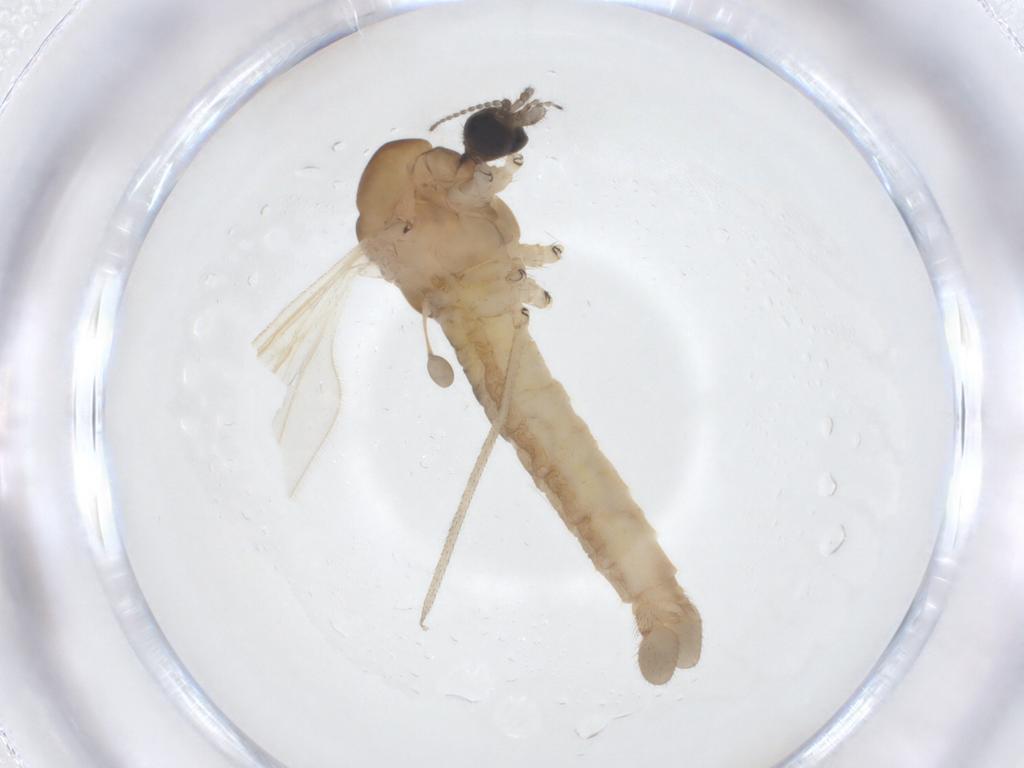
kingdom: Animalia
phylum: Arthropoda
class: Insecta
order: Diptera
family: Limoniidae
